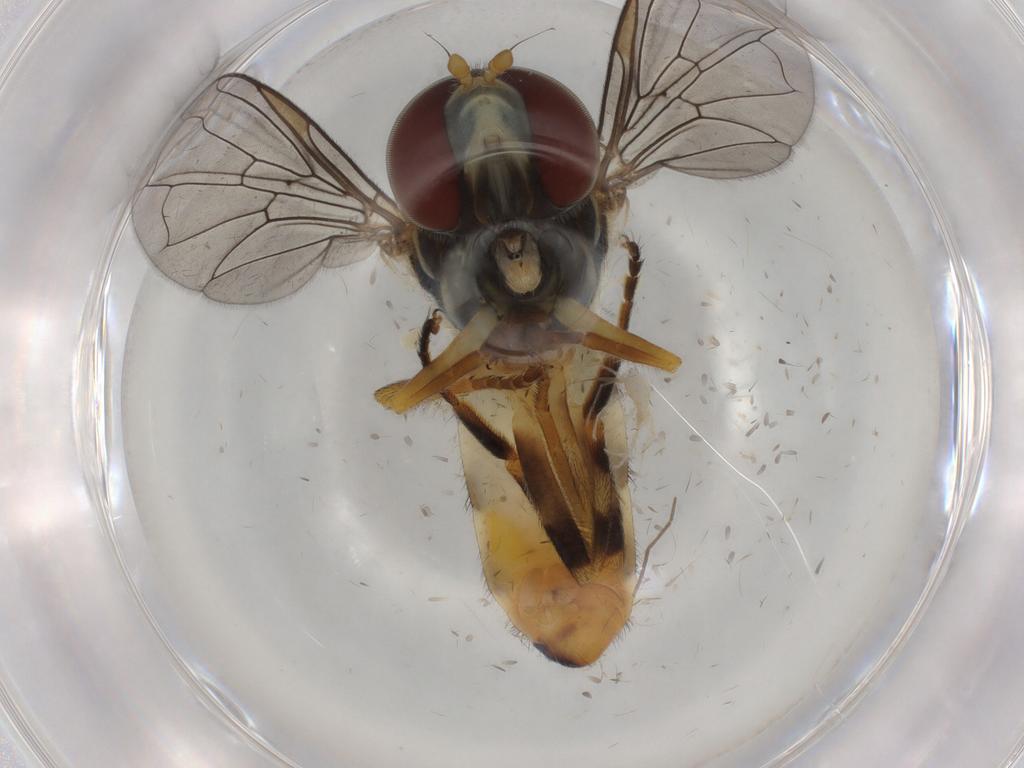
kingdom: Animalia
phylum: Arthropoda
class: Insecta
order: Diptera
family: Syrphidae
